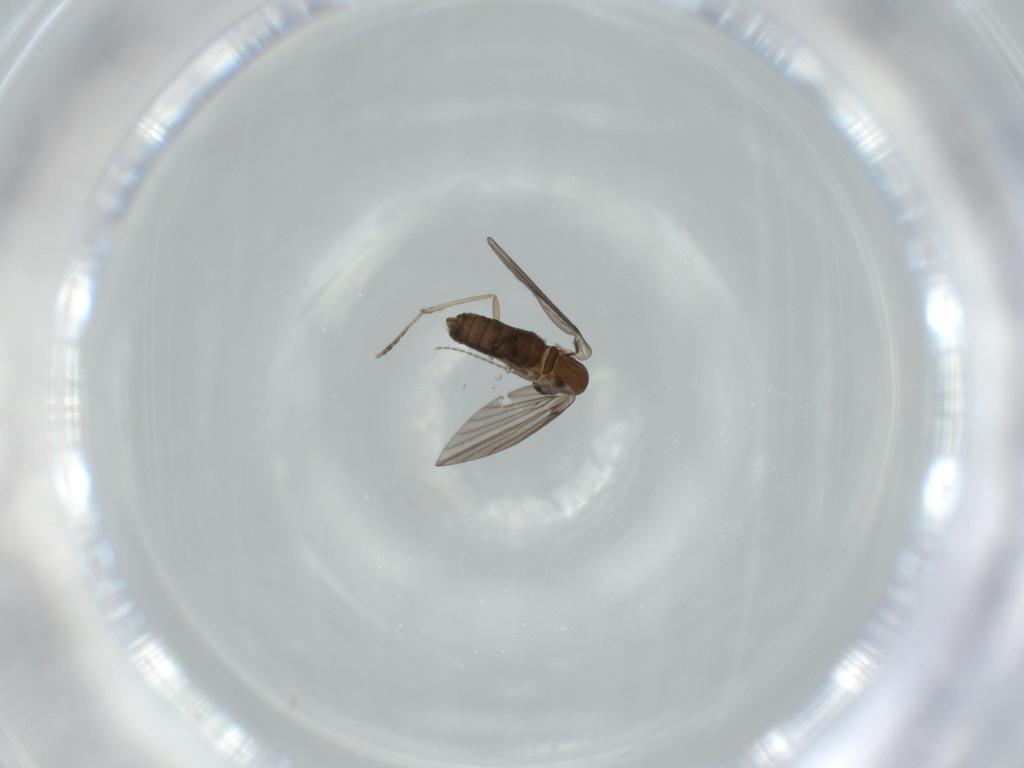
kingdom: Animalia
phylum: Arthropoda
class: Insecta
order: Diptera
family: Psychodidae
